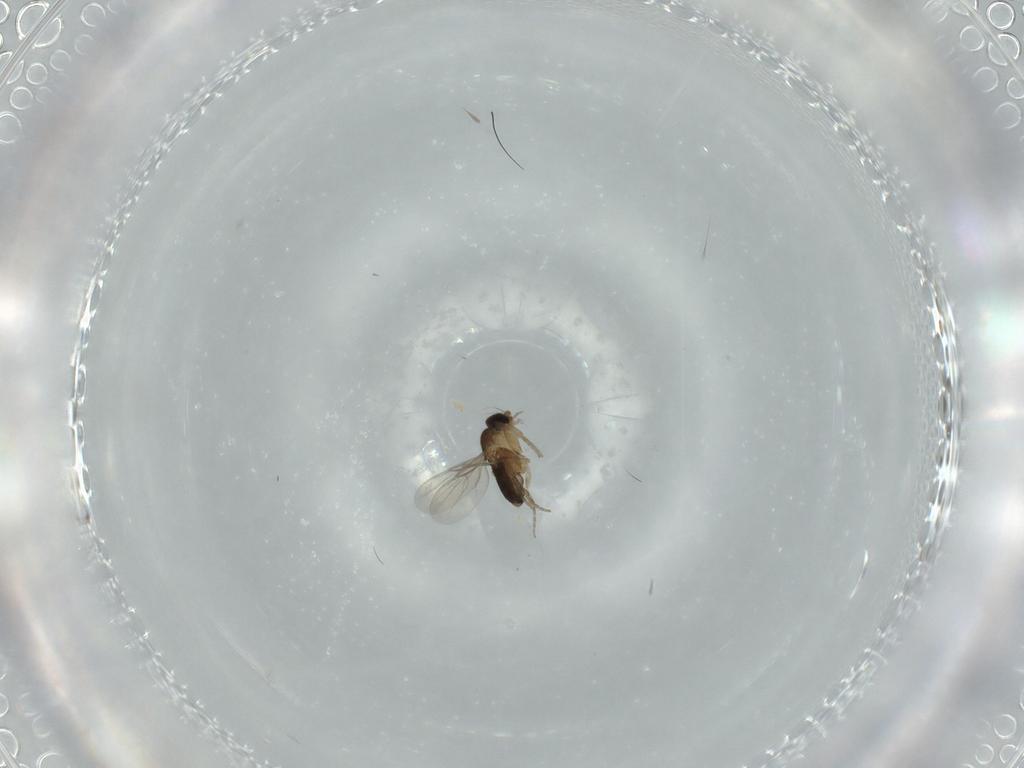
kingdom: Animalia
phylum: Arthropoda
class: Insecta
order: Diptera
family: Phoridae
